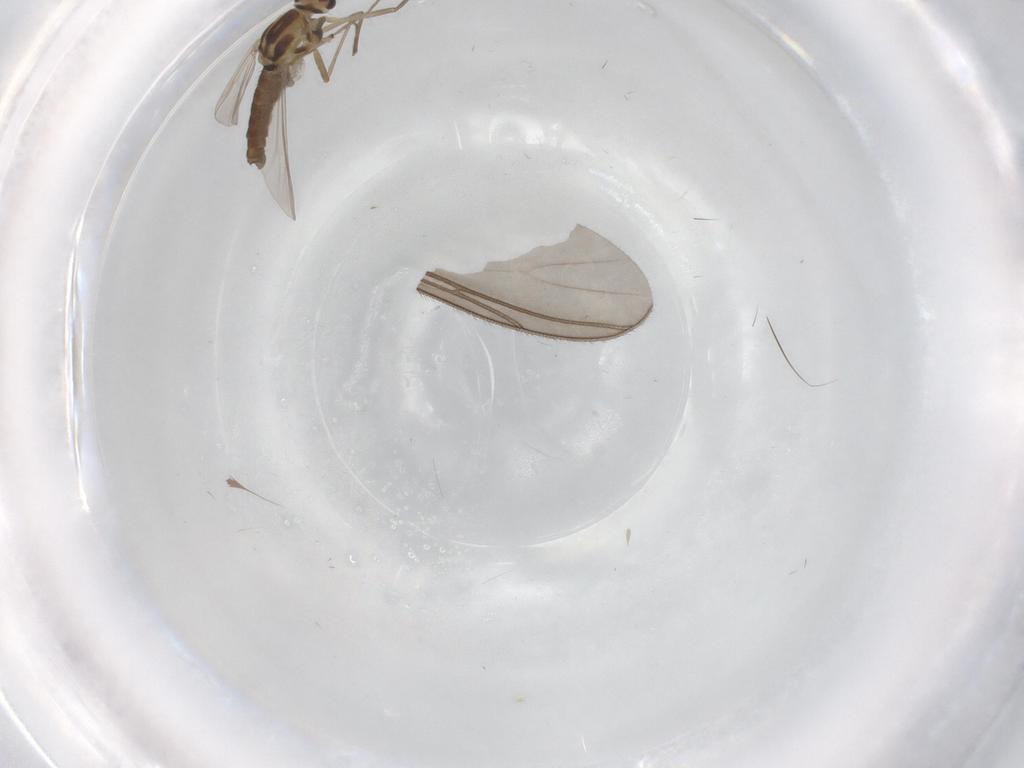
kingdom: Animalia
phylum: Arthropoda
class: Insecta
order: Diptera
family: Chironomidae
